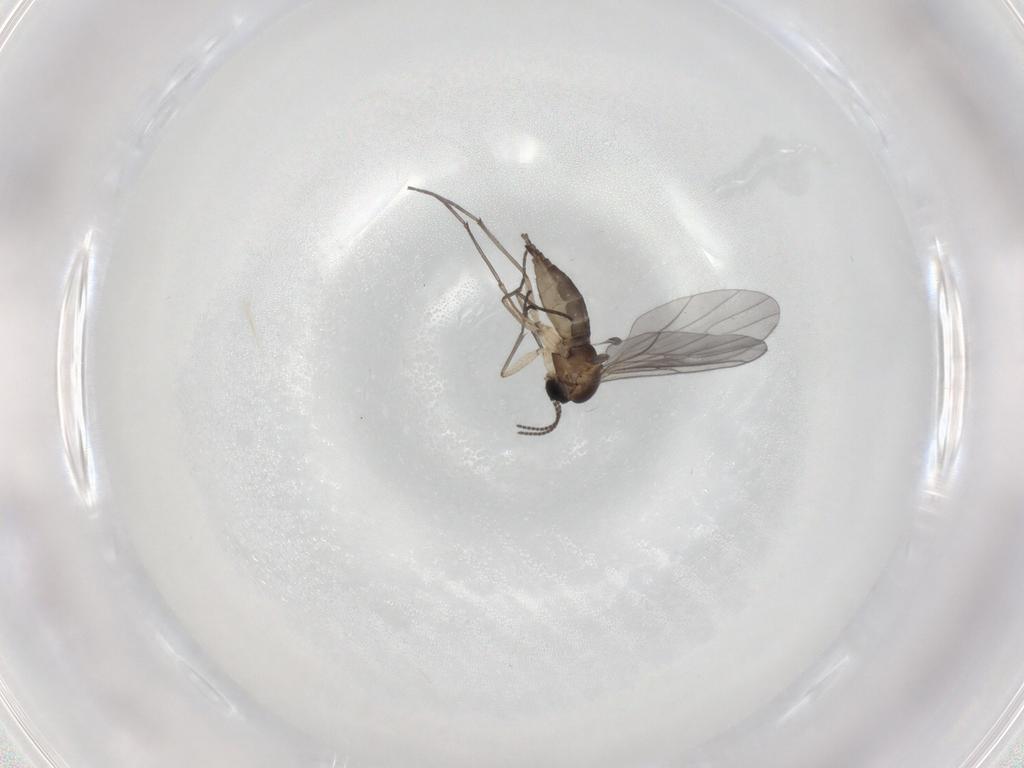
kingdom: Animalia
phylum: Arthropoda
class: Insecta
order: Diptera
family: Sciaridae
